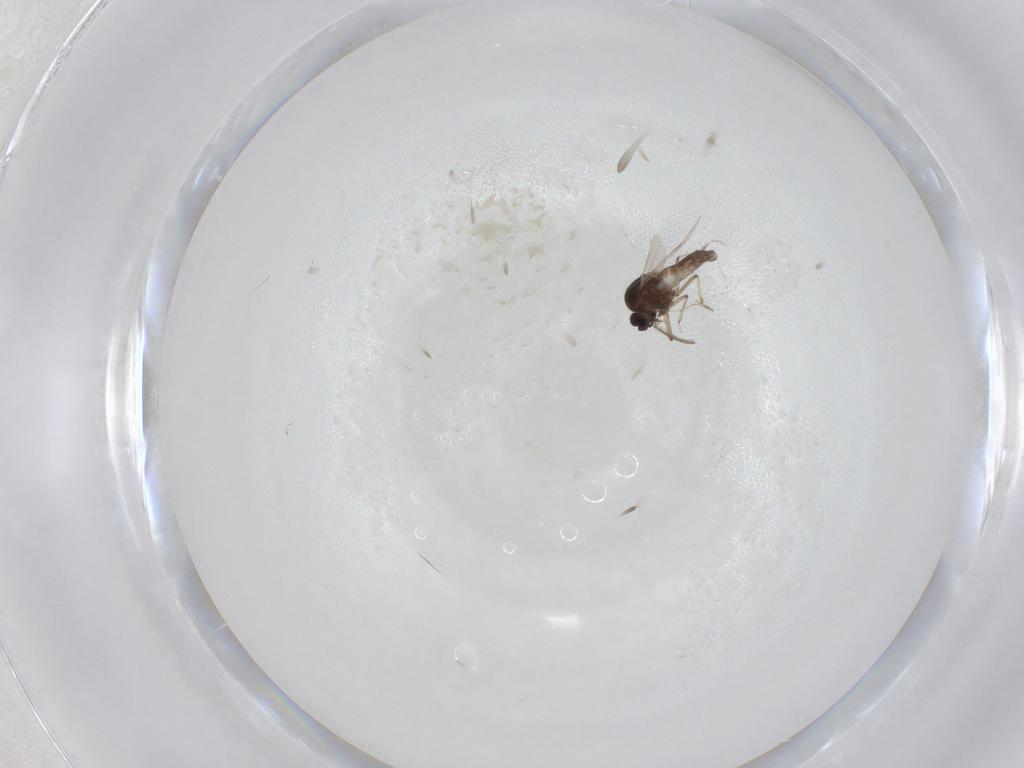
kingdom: Animalia
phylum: Arthropoda
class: Insecta
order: Diptera
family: Ceratopogonidae
